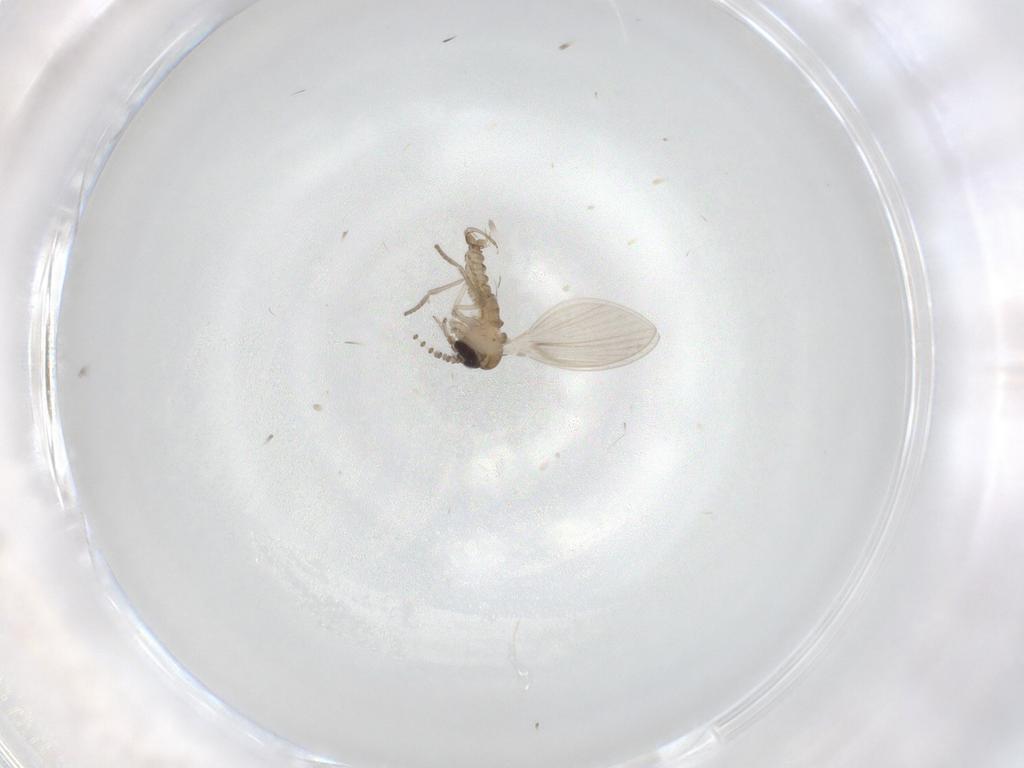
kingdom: Animalia
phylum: Arthropoda
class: Insecta
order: Diptera
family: Psychodidae
